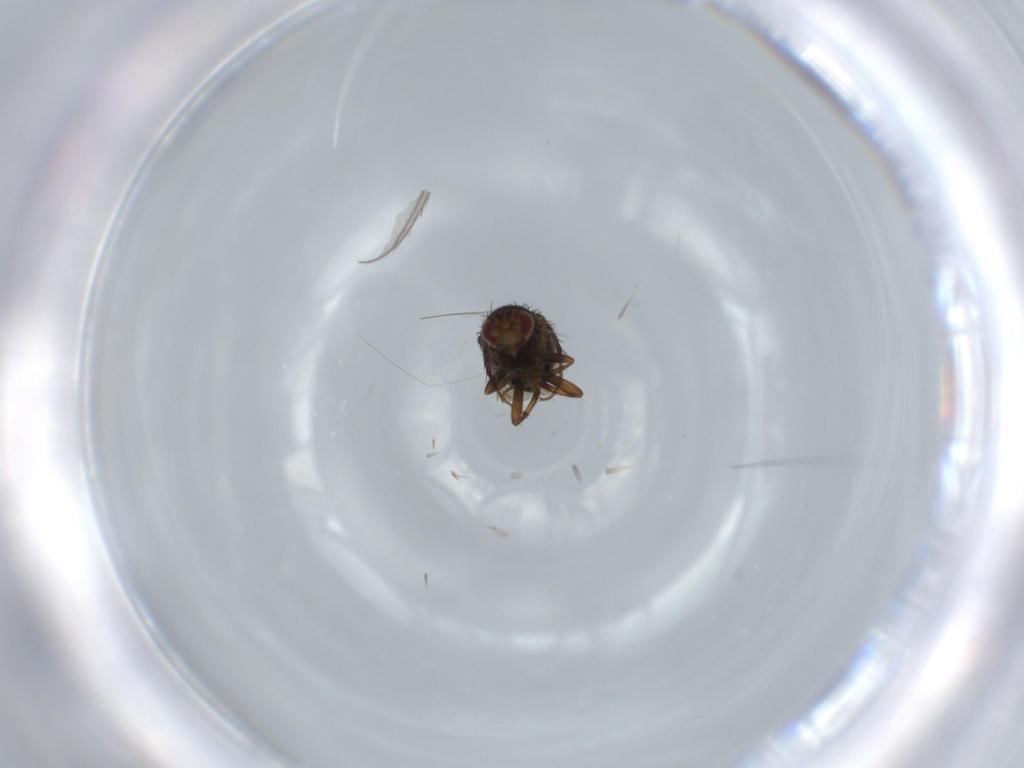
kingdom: Animalia
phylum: Arthropoda
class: Insecta
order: Diptera
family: Sphaeroceridae
